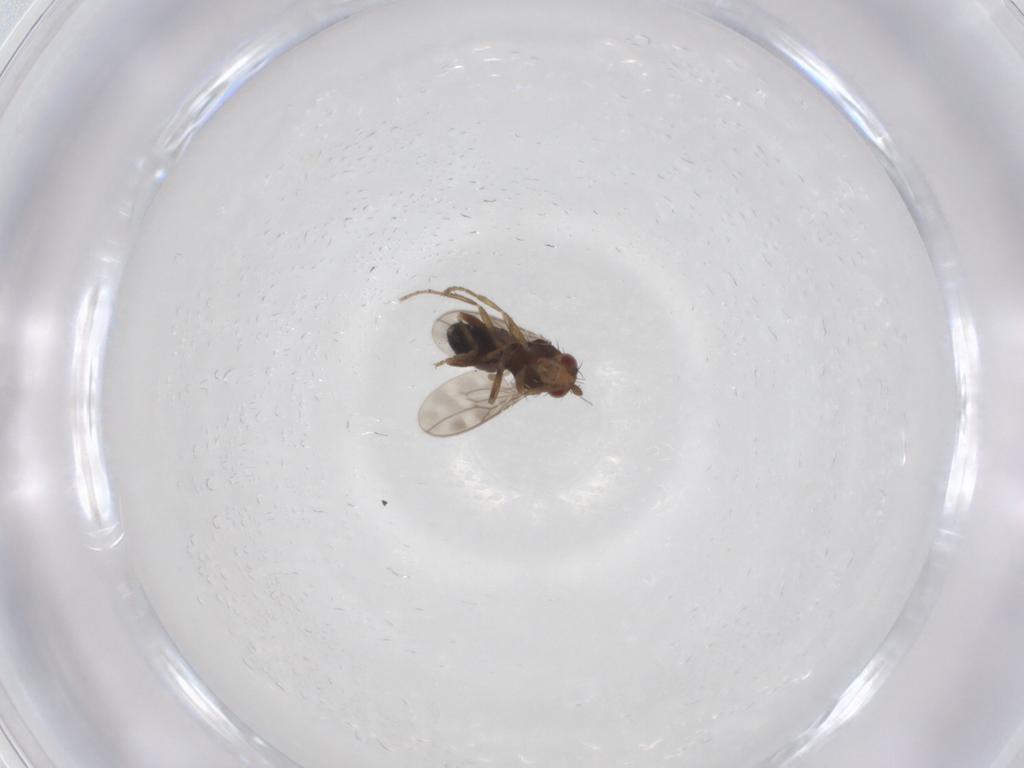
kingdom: Animalia
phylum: Arthropoda
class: Insecta
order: Diptera
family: Sphaeroceridae
